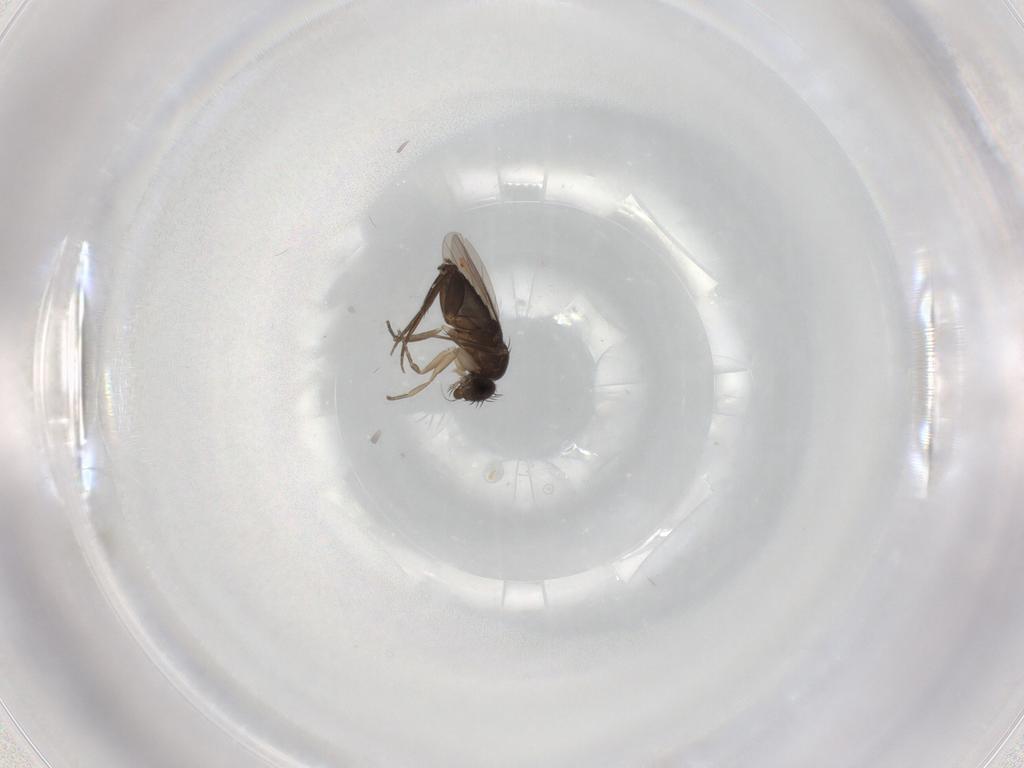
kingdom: Animalia
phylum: Arthropoda
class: Insecta
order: Diptera
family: Phoridae
